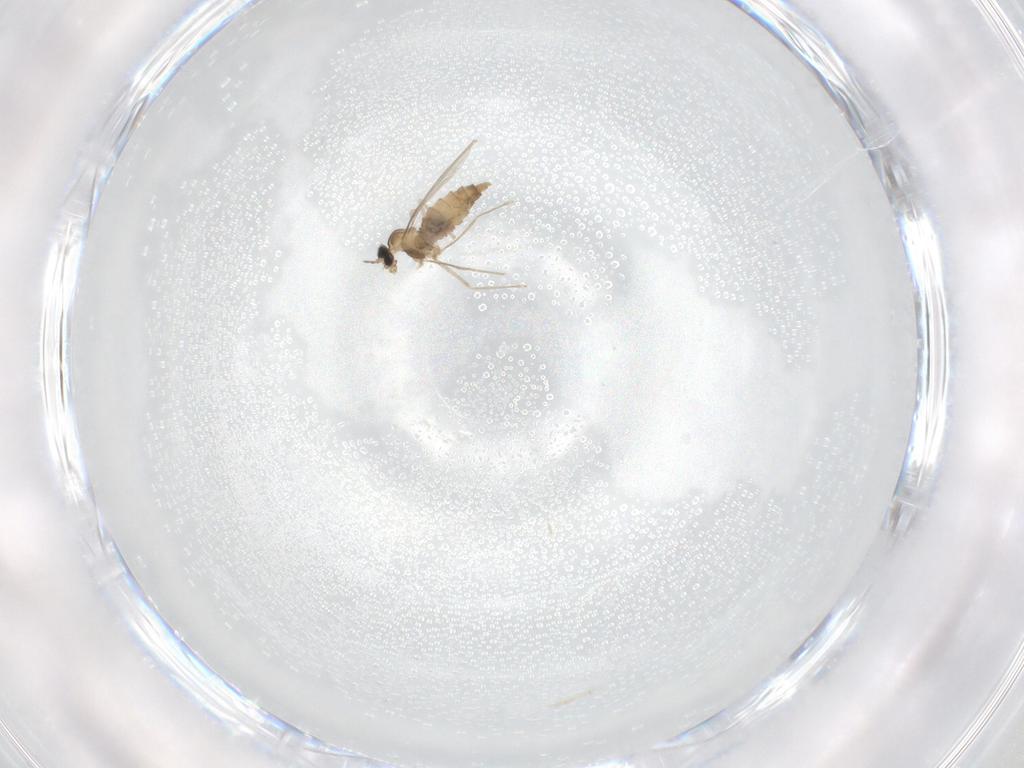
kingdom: Animalia
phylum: Arthropoda
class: Insecta
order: Diptera
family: Cecidomyiidae
